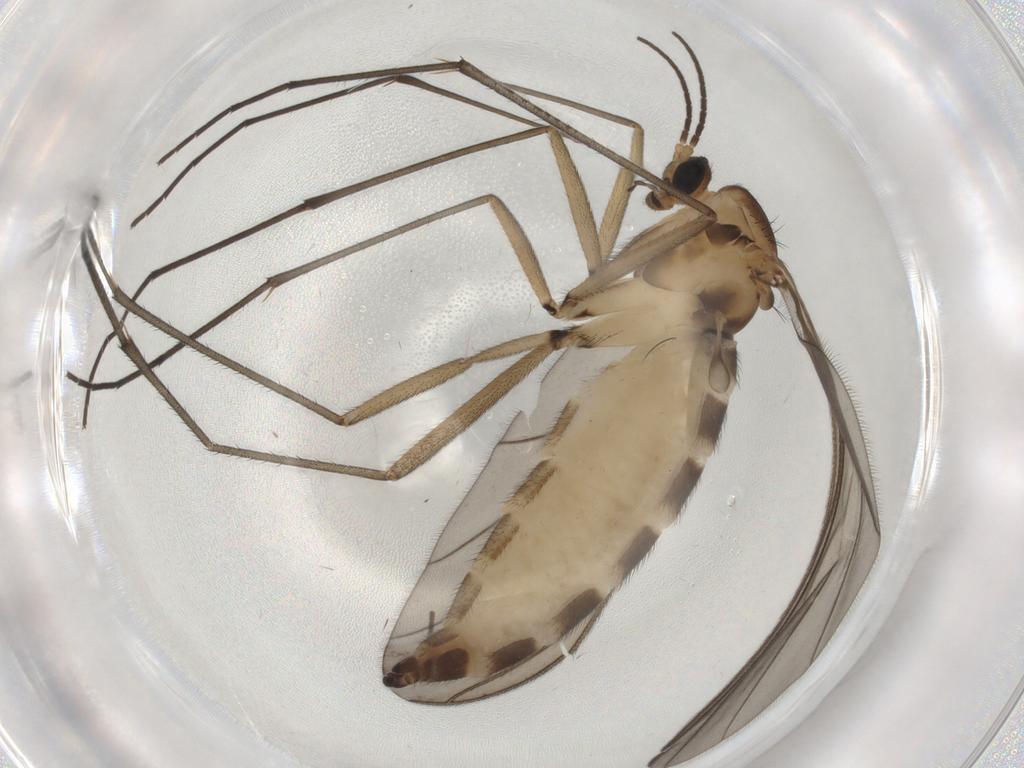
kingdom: Animalia
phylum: Arthropoda
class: Insecta
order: Diptera
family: Sciaridae
